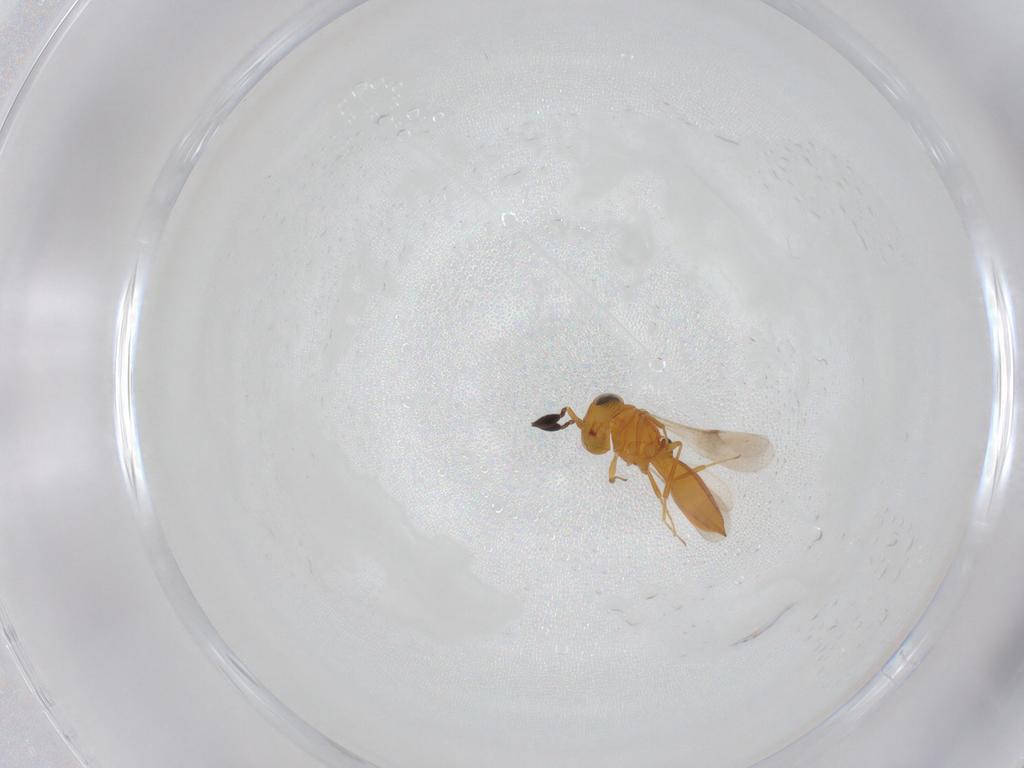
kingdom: Animalia
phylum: Arthropoda
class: Insecta
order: Hymenoptera
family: Scelionidae
